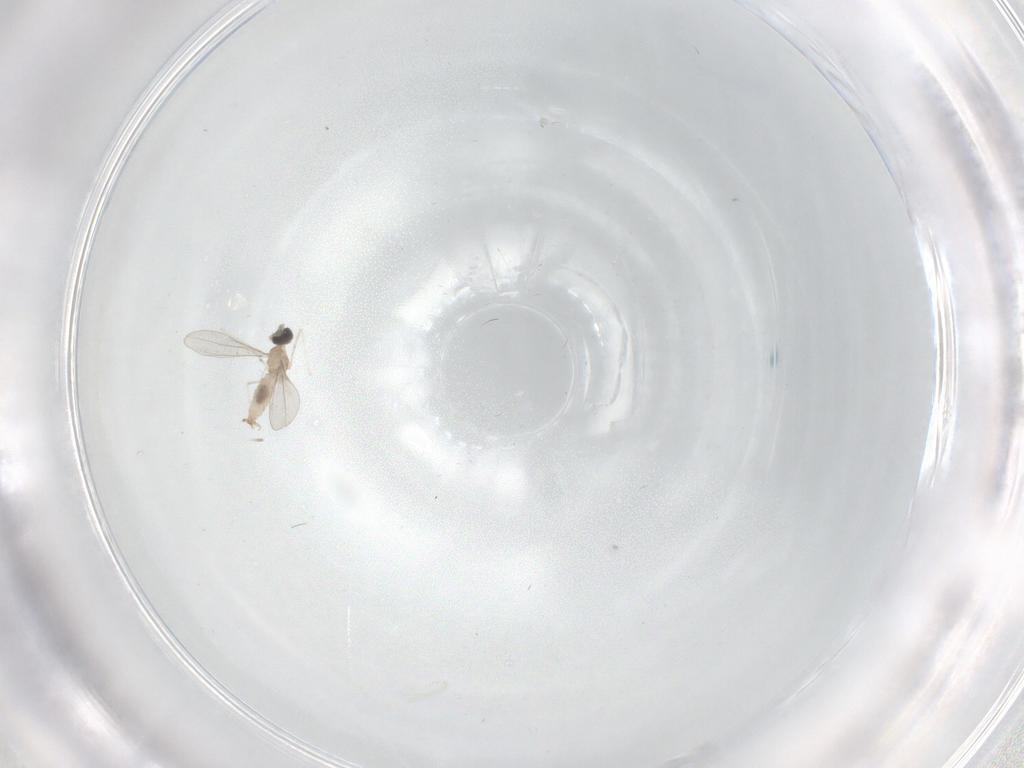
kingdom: Animalia
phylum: Arthropoda
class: Insecta
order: Diptera
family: Cecidomyiidae
